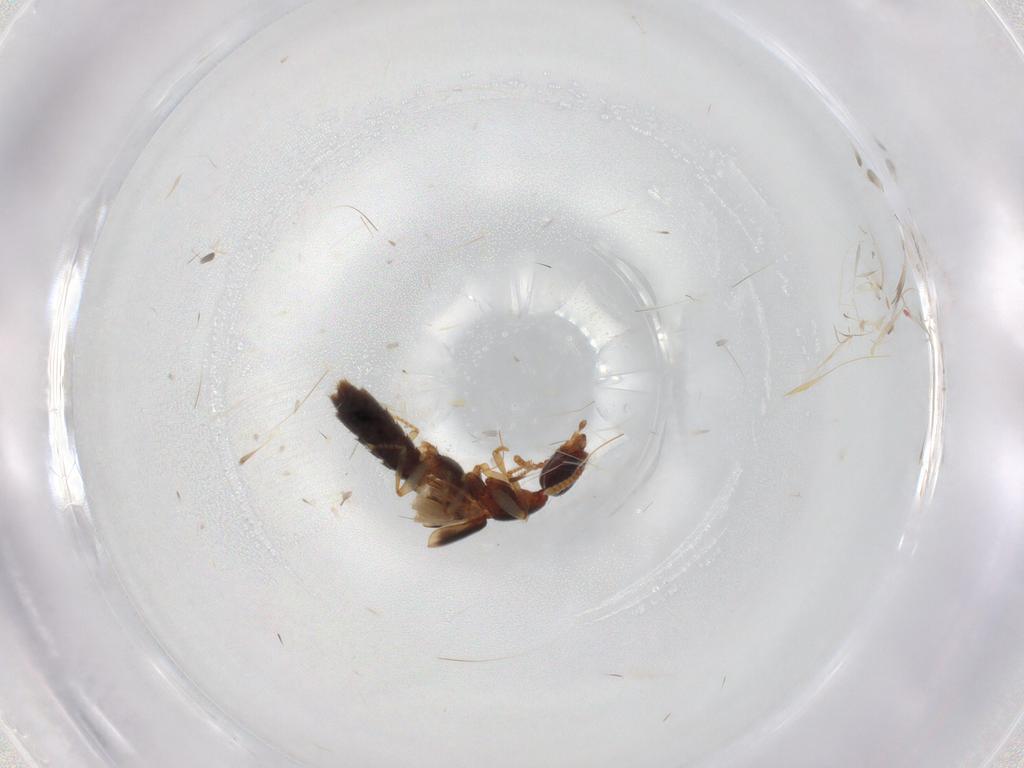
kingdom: Animalia
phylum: Arthropoda
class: Insecta
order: Coleoptera
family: Staphylinidae
